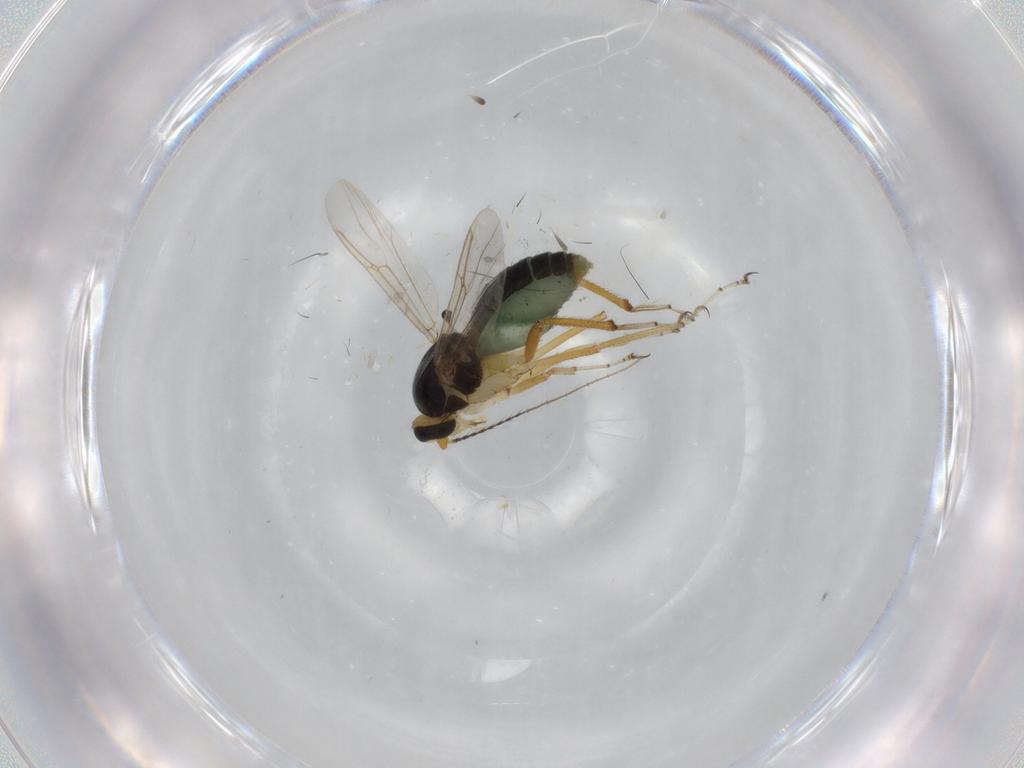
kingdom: Animalia
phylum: Arthropoda
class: Insecta
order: Diptera
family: Ceratopogonidae
